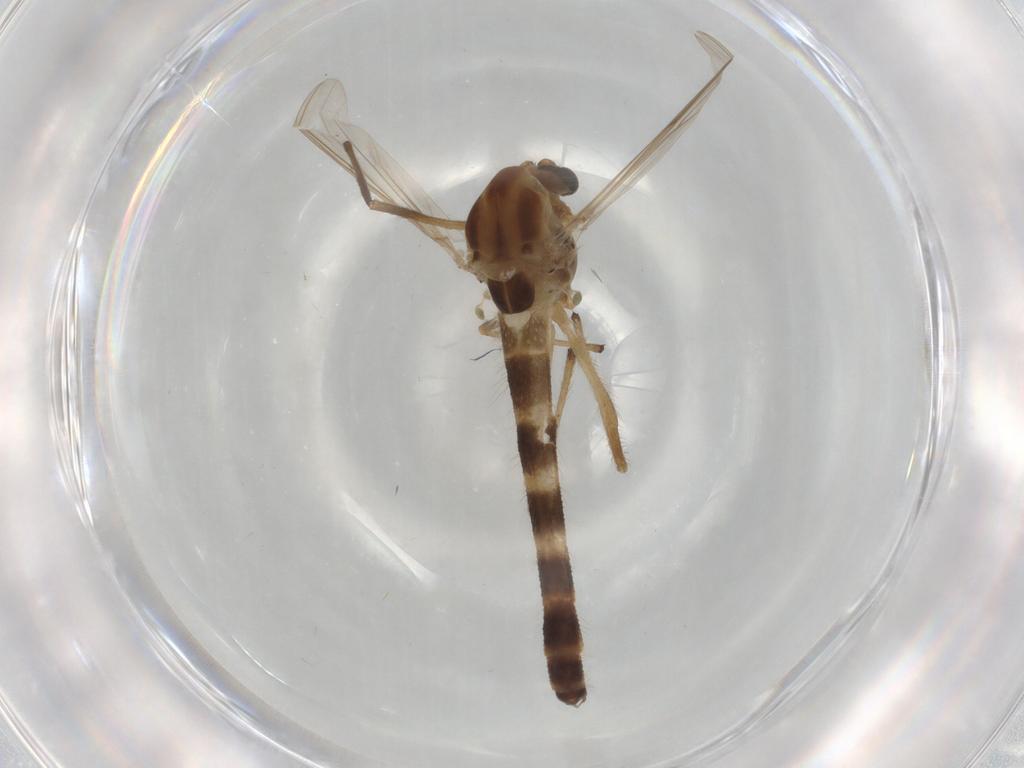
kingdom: Animalia
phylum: Arthropoda
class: Insecta
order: Diptera
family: Chironomidae
